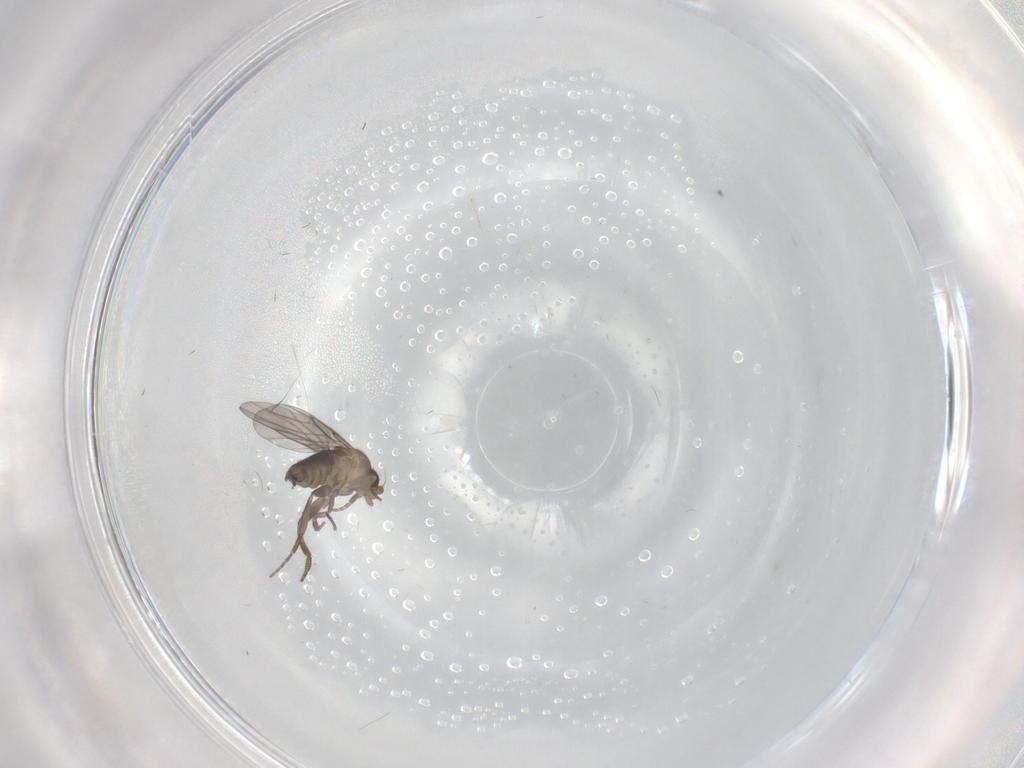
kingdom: Animalia
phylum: Arthropoda
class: Insecta
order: Diptera
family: Phoridae
